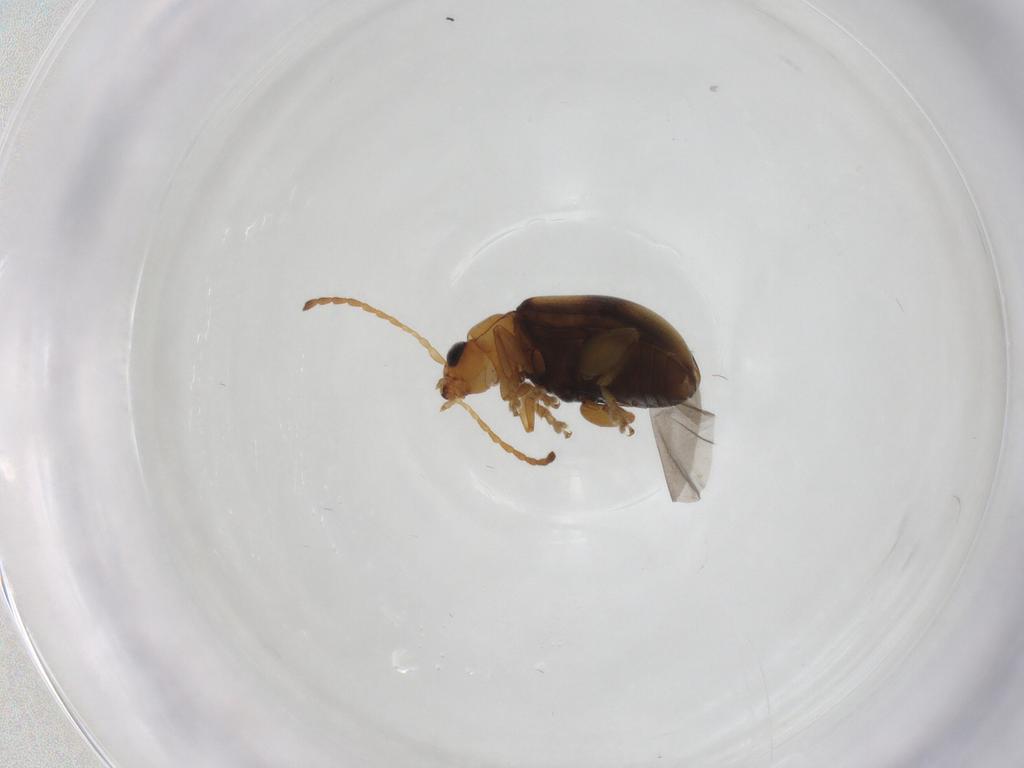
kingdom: Animalia
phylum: Arthropoda
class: Insecta
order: Coleoptera
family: Chrysomelidae
